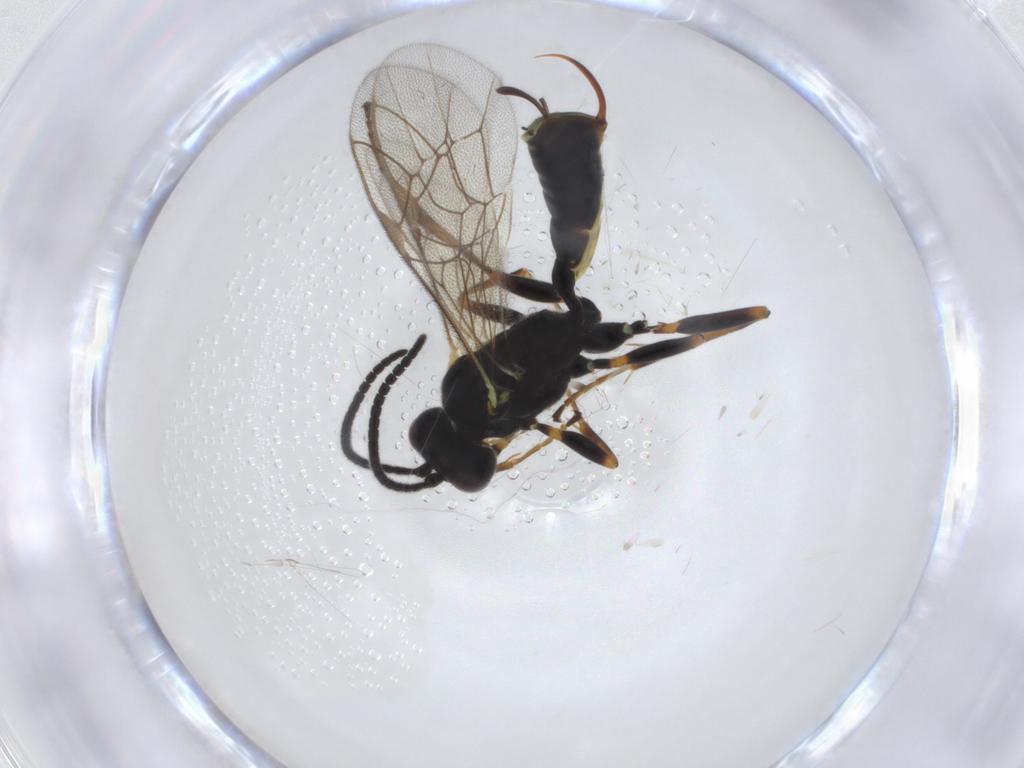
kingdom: Animalia
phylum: Arthropoda
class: Insecta
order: Hymenoptera
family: Ichneumonidae
